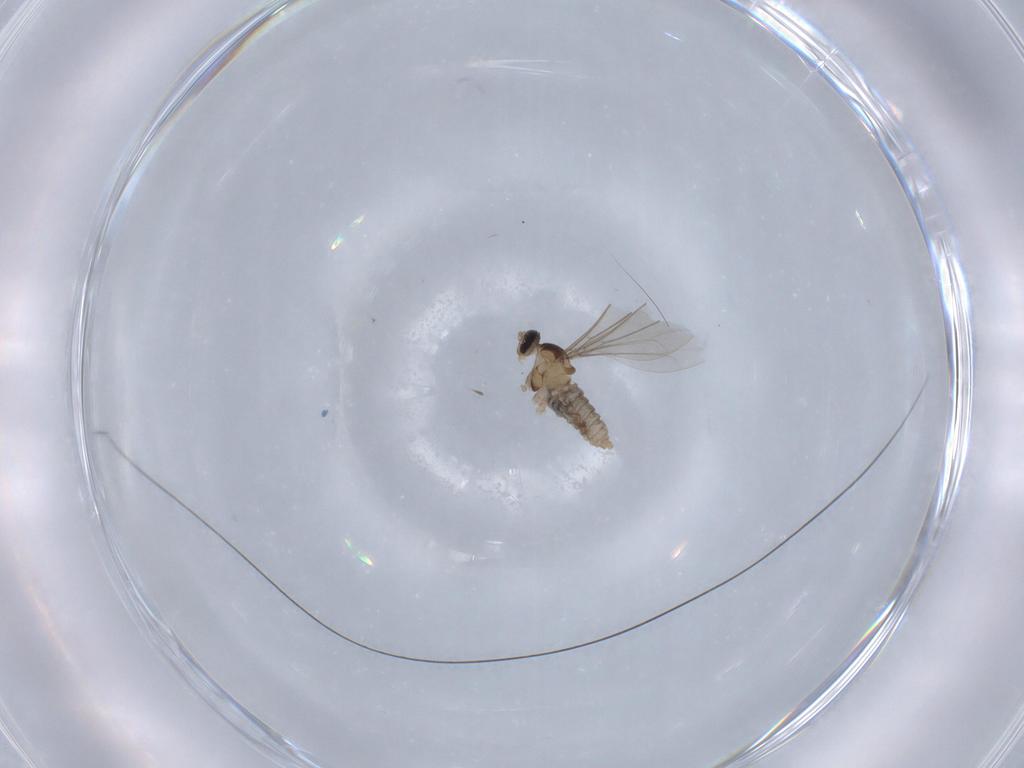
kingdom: Animalia
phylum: Arthropoda
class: Insecta
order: Diptera
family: Cecidomyiidae
